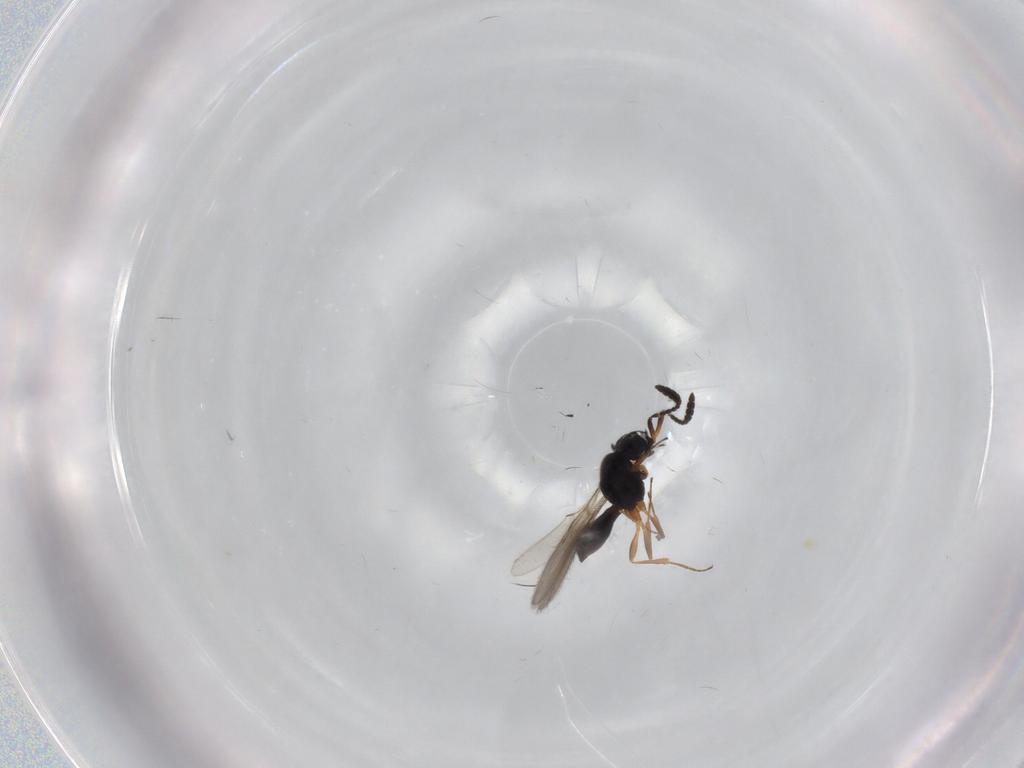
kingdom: Animalia
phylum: Arthropoda
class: Insecta
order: Hymenoptera
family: Scelionidae
